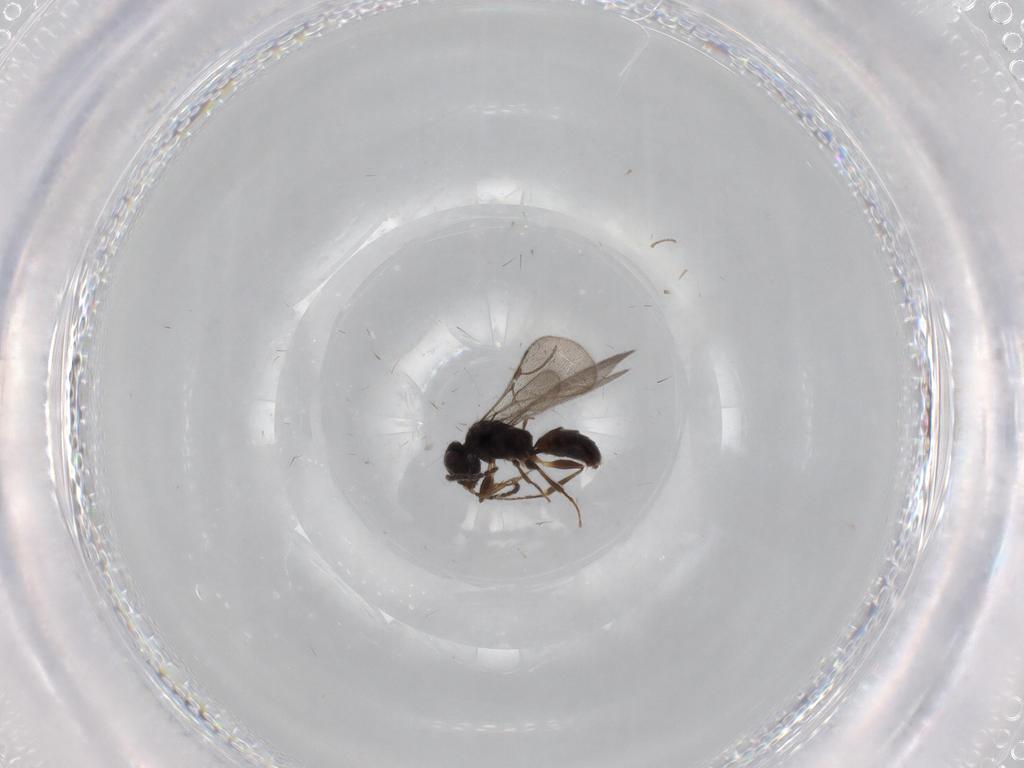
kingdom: Animalia
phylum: Arthropoda
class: Insecta
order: Hymenoptera
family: Bethylidae
